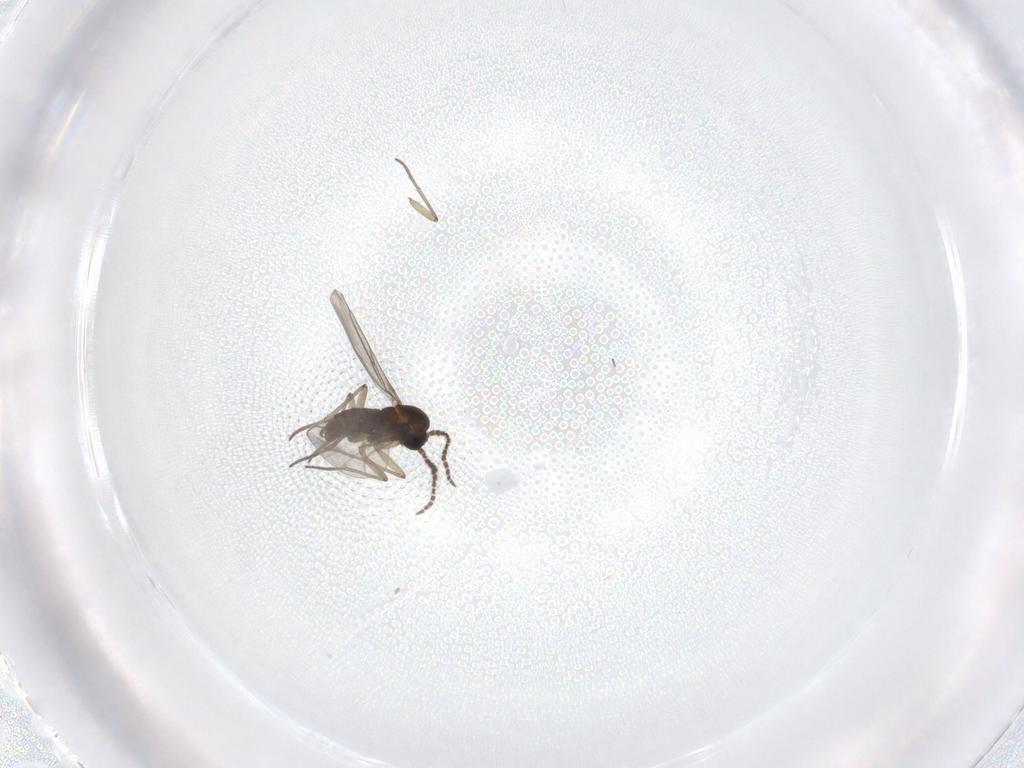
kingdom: Animalia
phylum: Arthropoda
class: Insecta
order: Diptera
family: Sciaridae
